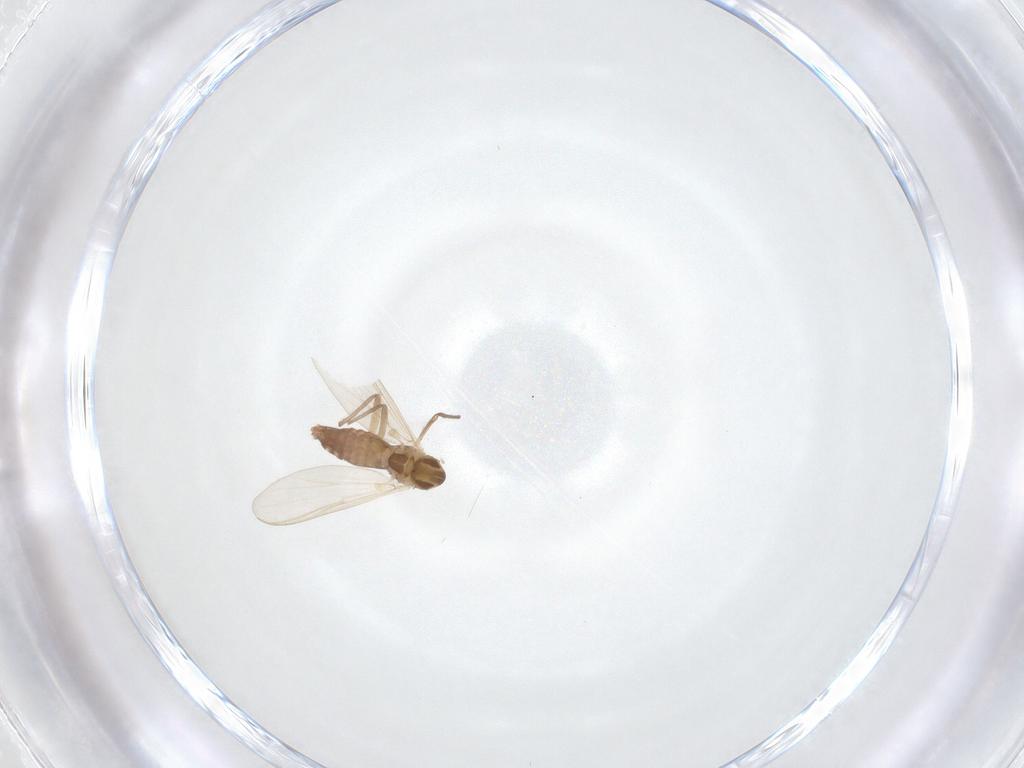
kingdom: Animalia
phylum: Arthropoda
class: Insecta
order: Diptera
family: Chironomidae
